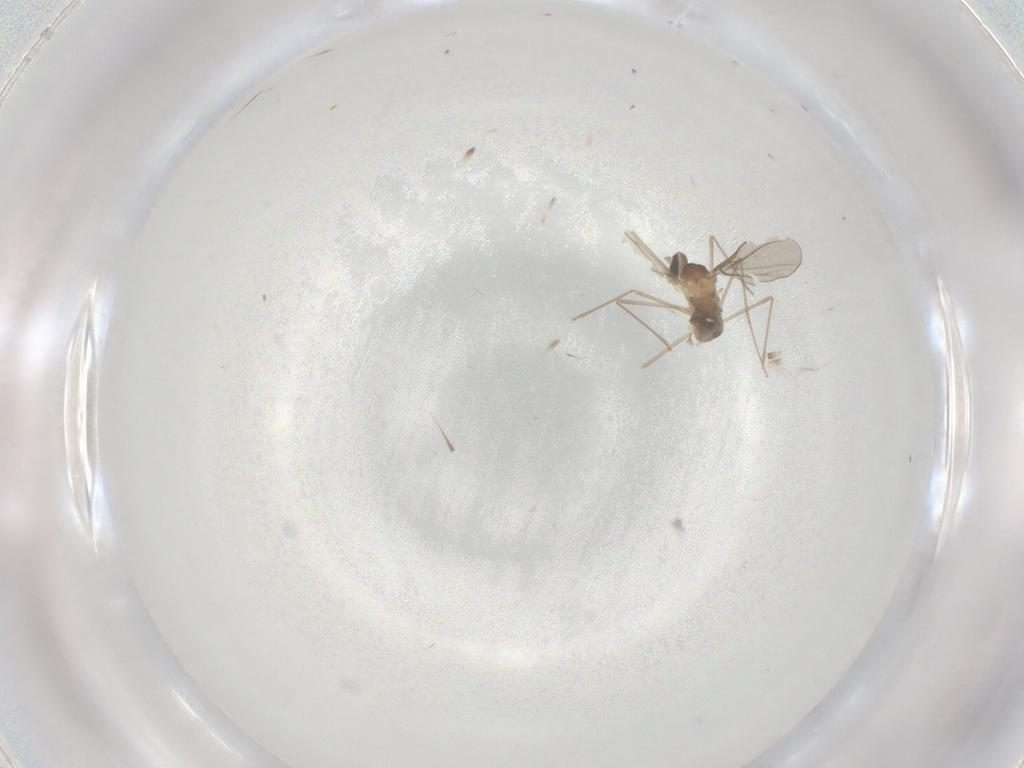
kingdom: Animalia
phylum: Arthropoda
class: Insecta
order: Diptera
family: Cecidomyiidae
